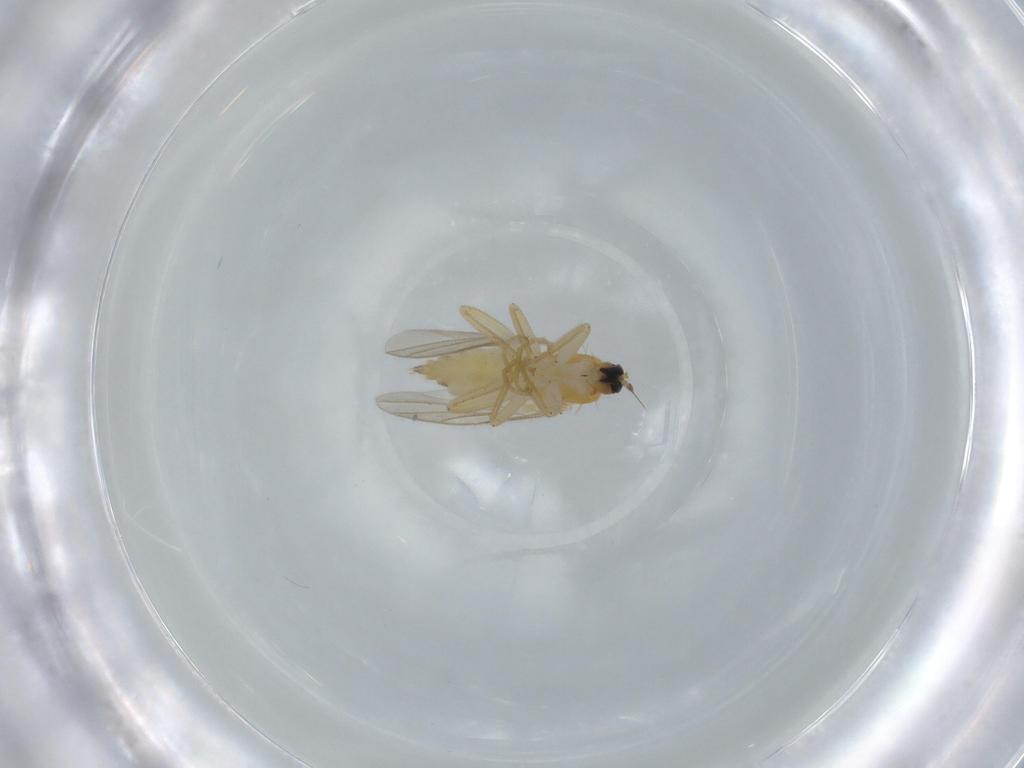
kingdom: Animalia
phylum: Arthropoda
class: Insecta
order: Diptera
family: Hybotidae
